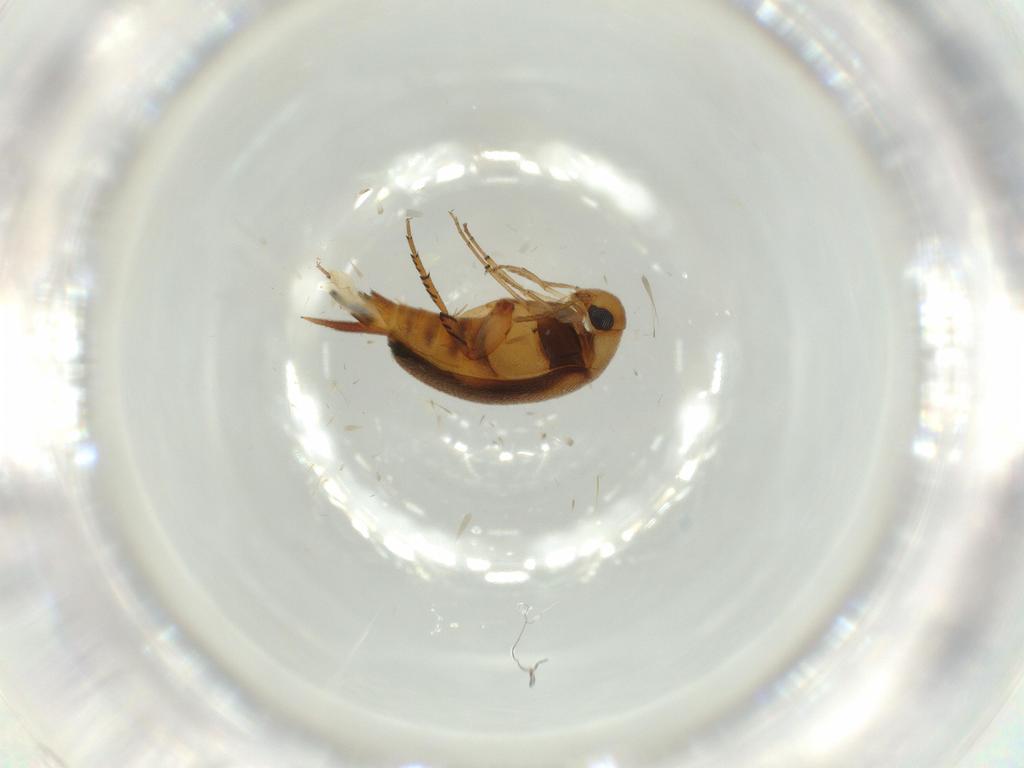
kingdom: Animalia
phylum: Arthropoda
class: Insecta
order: Coleoptera
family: Mordellidae
